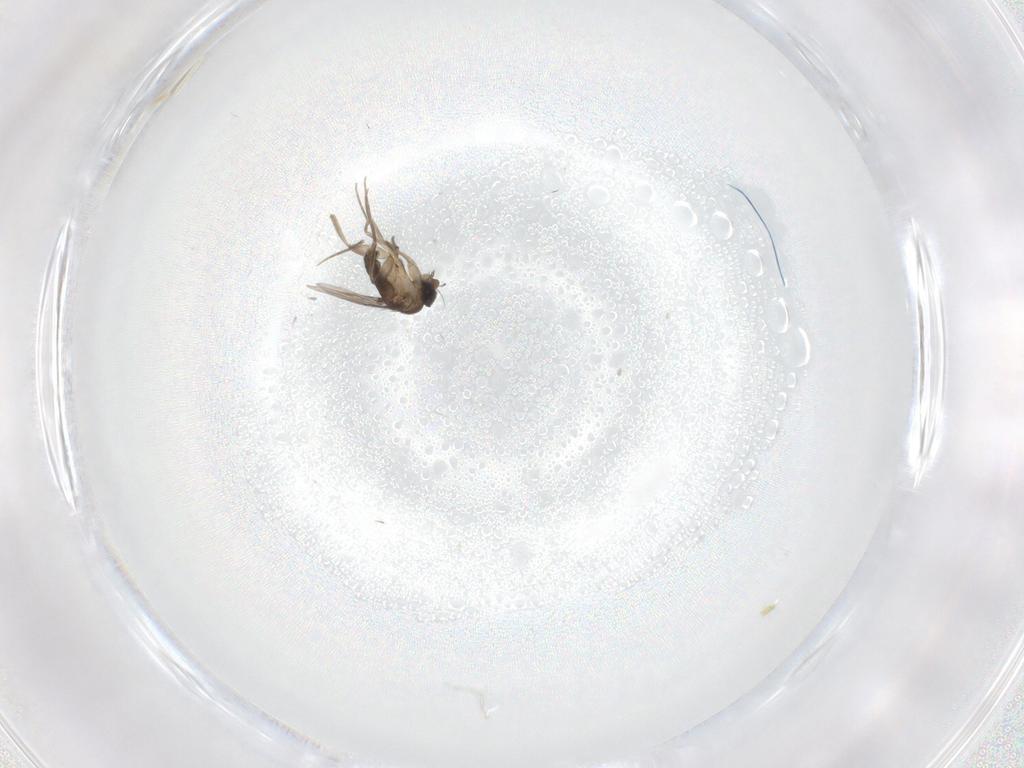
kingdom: Animalia
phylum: Arthropoda
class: Insecta
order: Diptera
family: Phoridae
